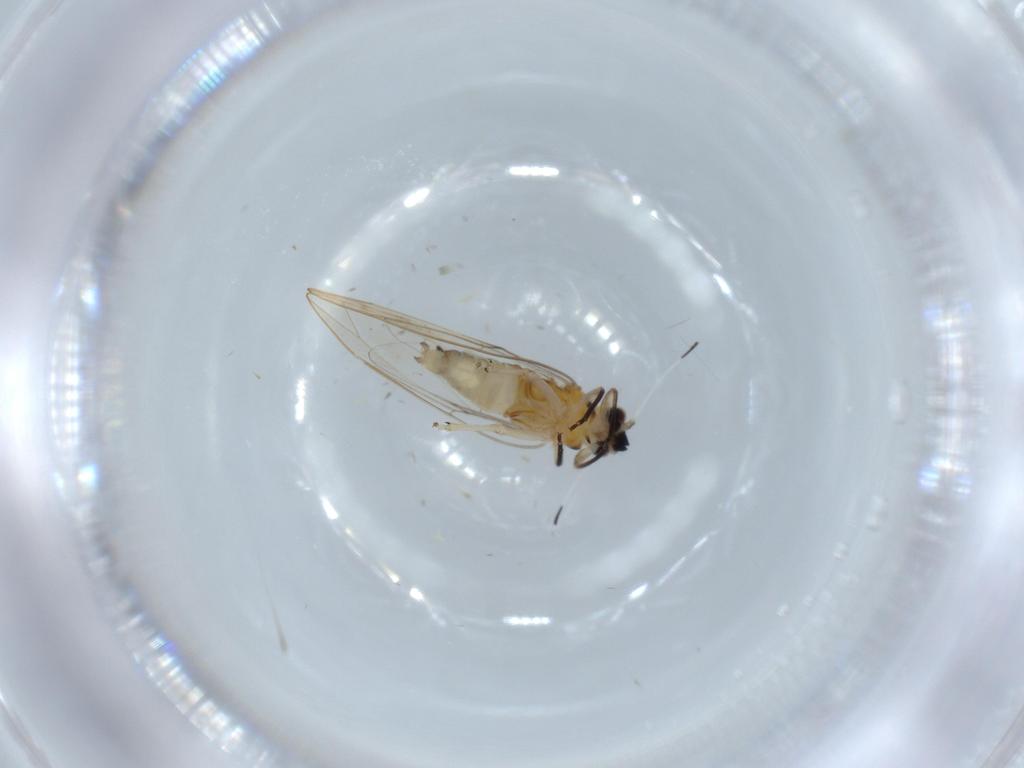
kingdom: Animalia
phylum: Arthropoda
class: Insecta
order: Hemiptera
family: Triozidae
